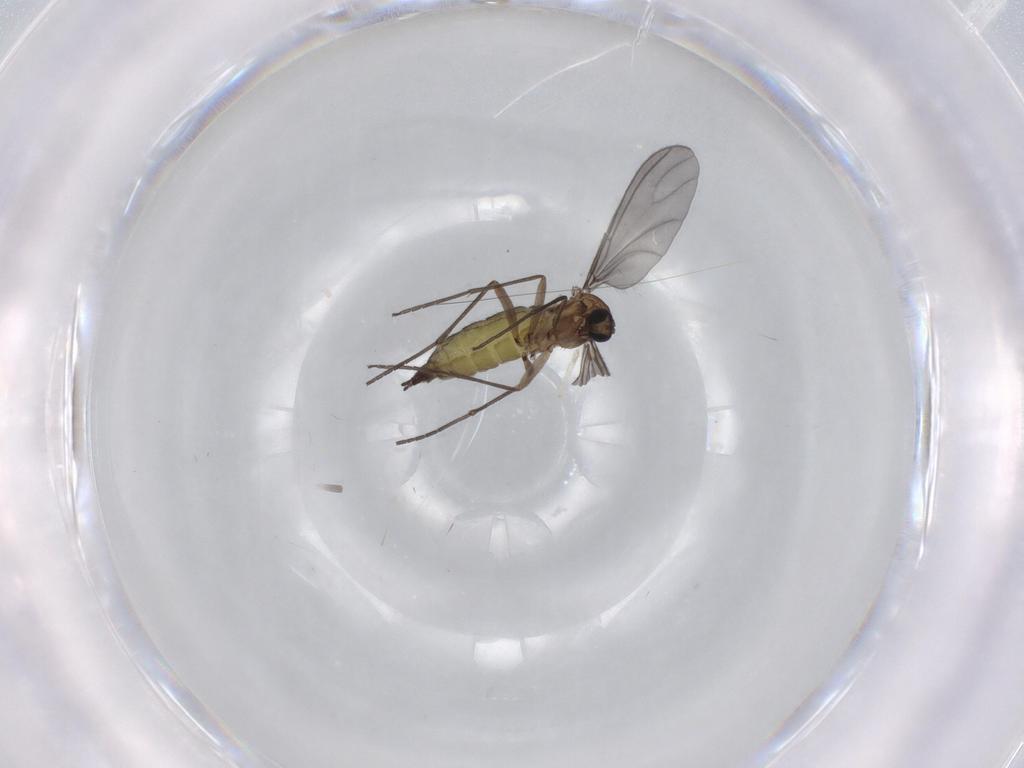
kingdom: Animalia
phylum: Arthropoda
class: Insecta
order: Diptera
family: Sciaridae
